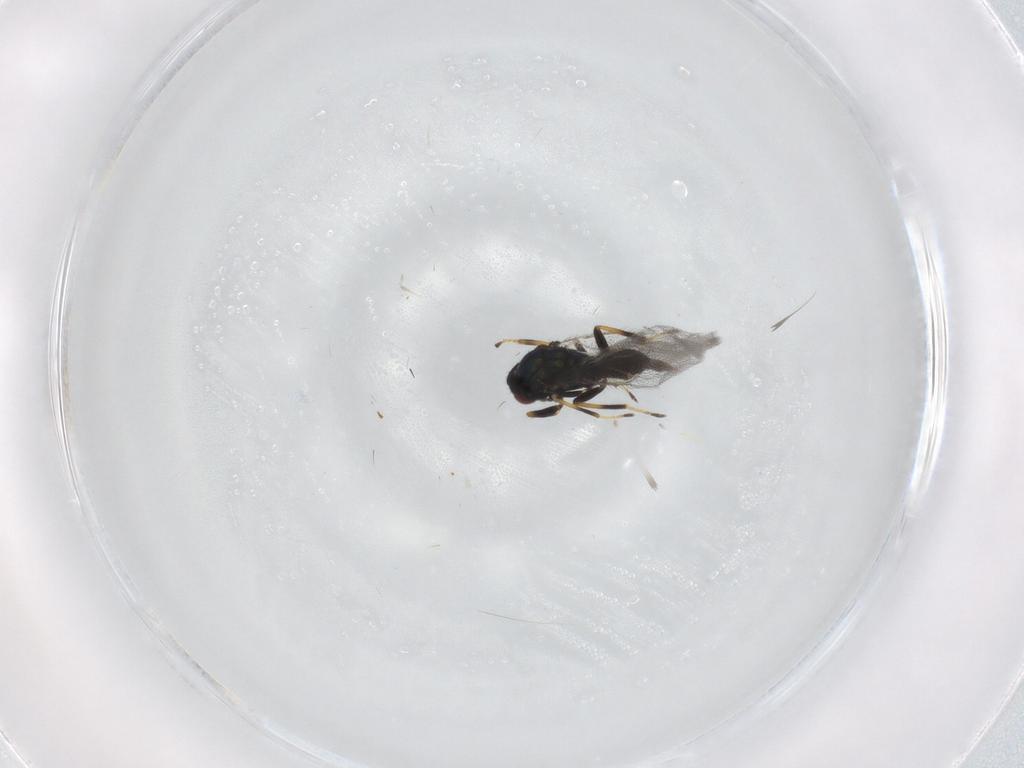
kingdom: Animalia
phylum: Arthropoda
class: Insecta
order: Hymenoptera
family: Eulophidae
